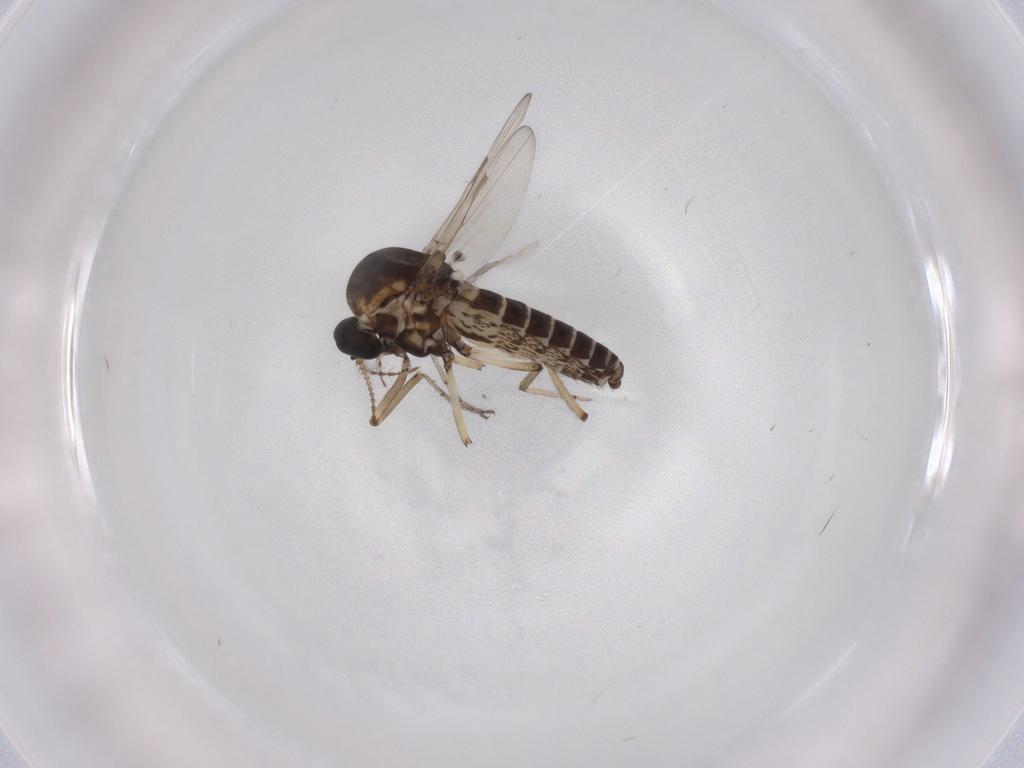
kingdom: Animalia
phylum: Arthropoda
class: Insecta
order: Diptera
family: Ceratopogonidae
